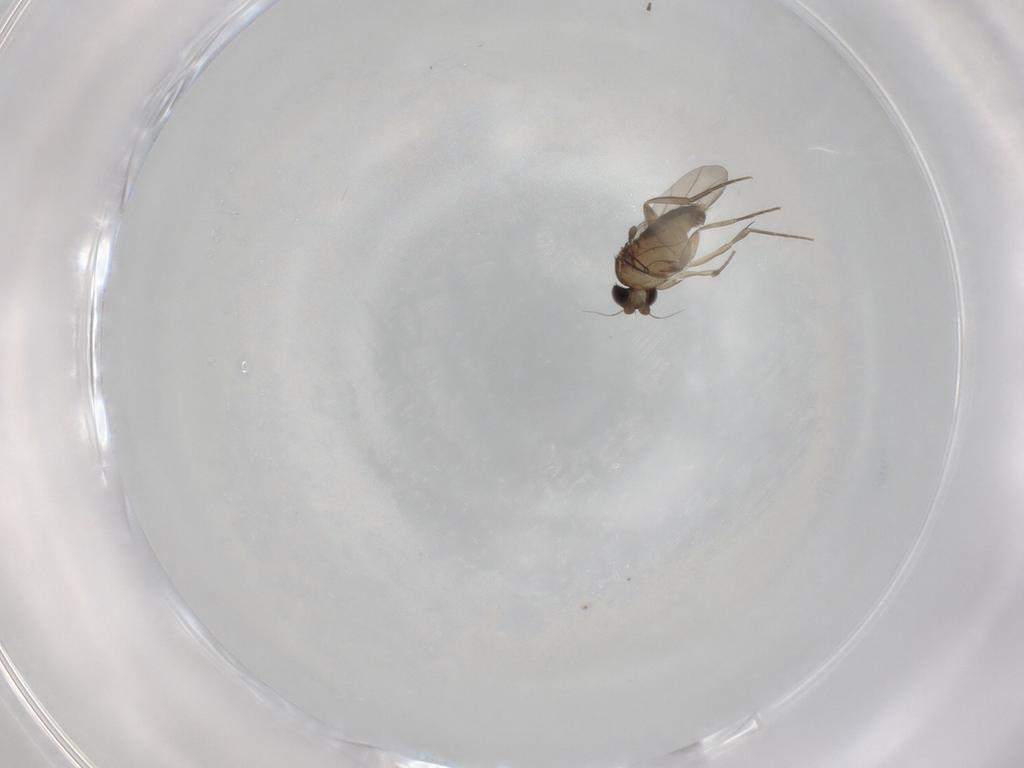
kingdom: Animalia
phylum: Arthropoda
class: Insecta
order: Diptera
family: Phoridae
